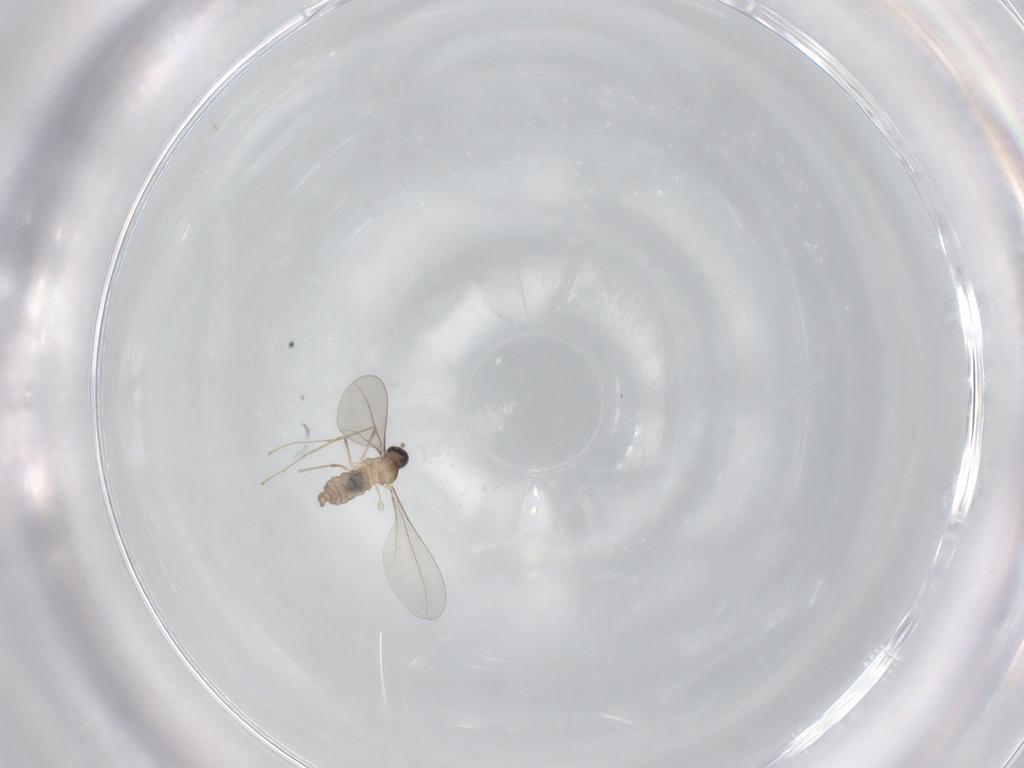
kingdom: Animalia
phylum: Arthropoda
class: Insecta
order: Diptera
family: Cecidomyiidae
